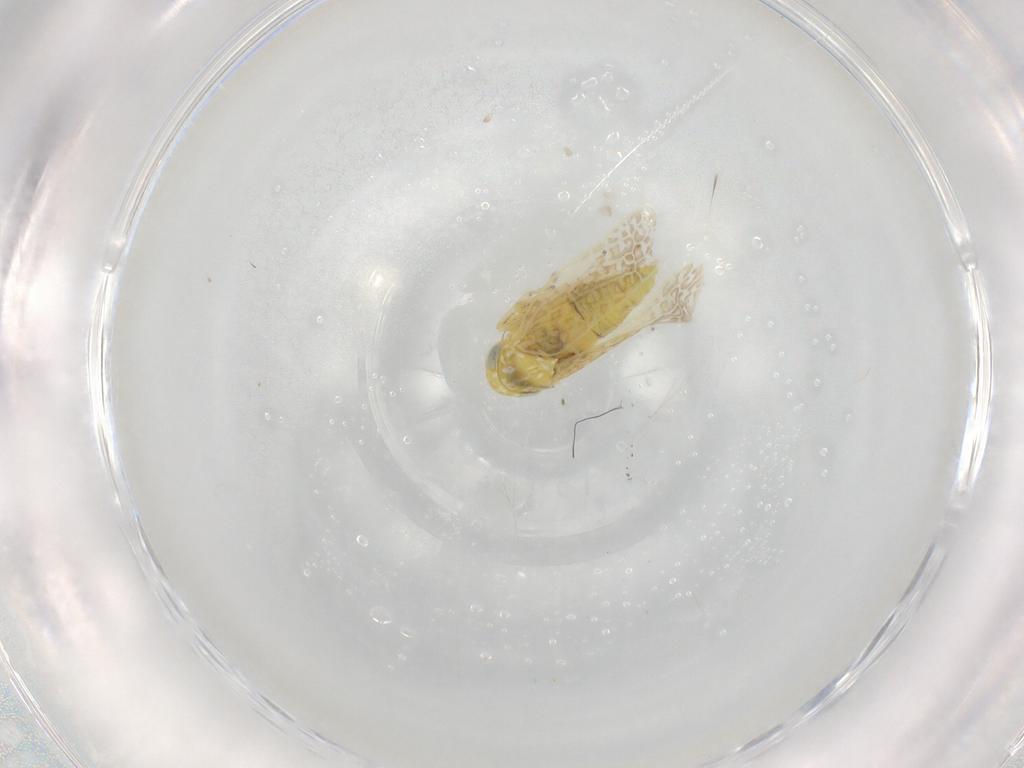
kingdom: Animalia
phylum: Arthropoda
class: Insecta
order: Hemiptera
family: Cicadellidae
